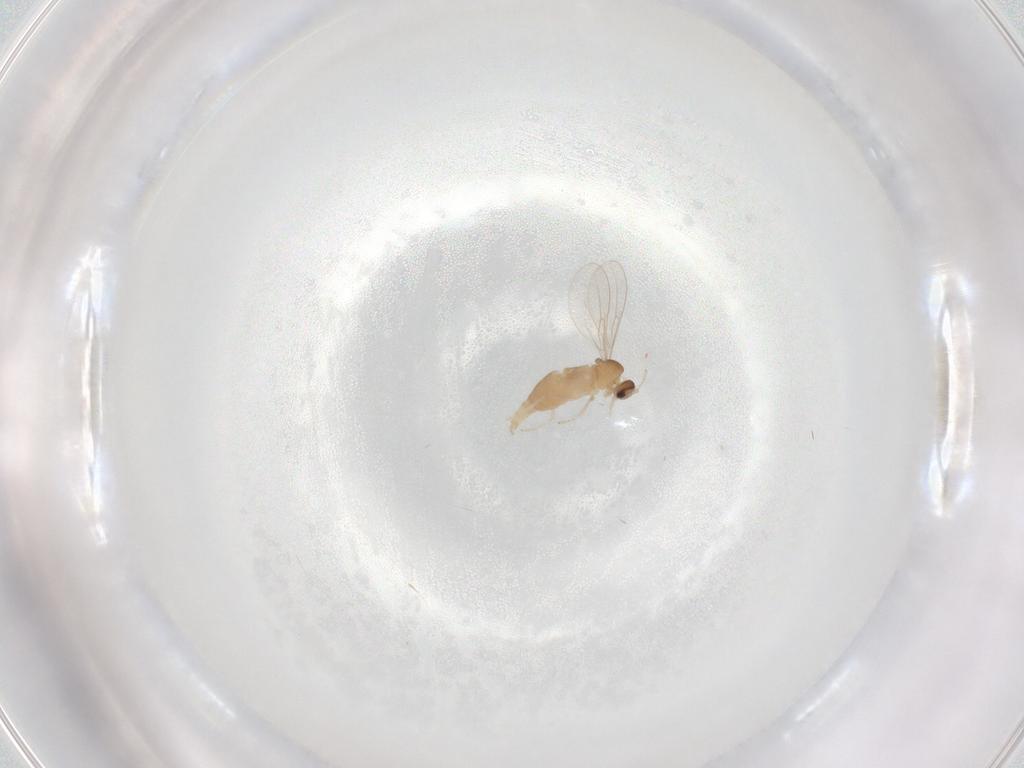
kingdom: Animalia
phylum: Arthropoda
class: Insecta
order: Diptera
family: Cecidomyiidae
